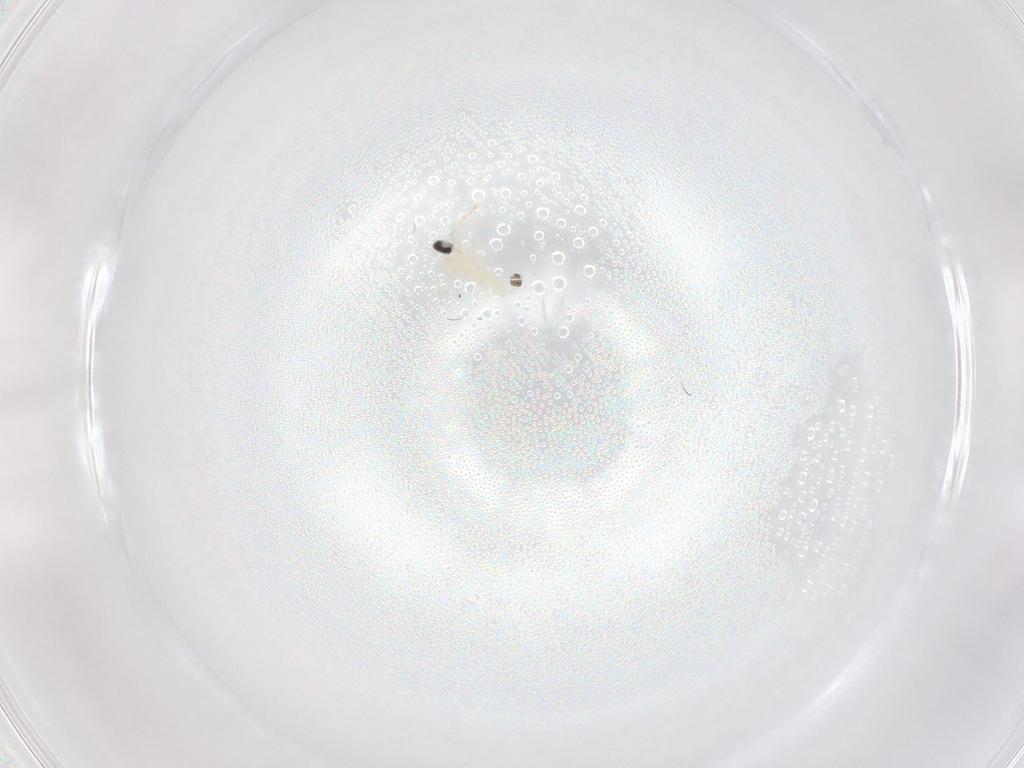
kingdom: Animalia
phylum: Arthropoda
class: Insecta
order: Diptera
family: Cecidomyiidae
